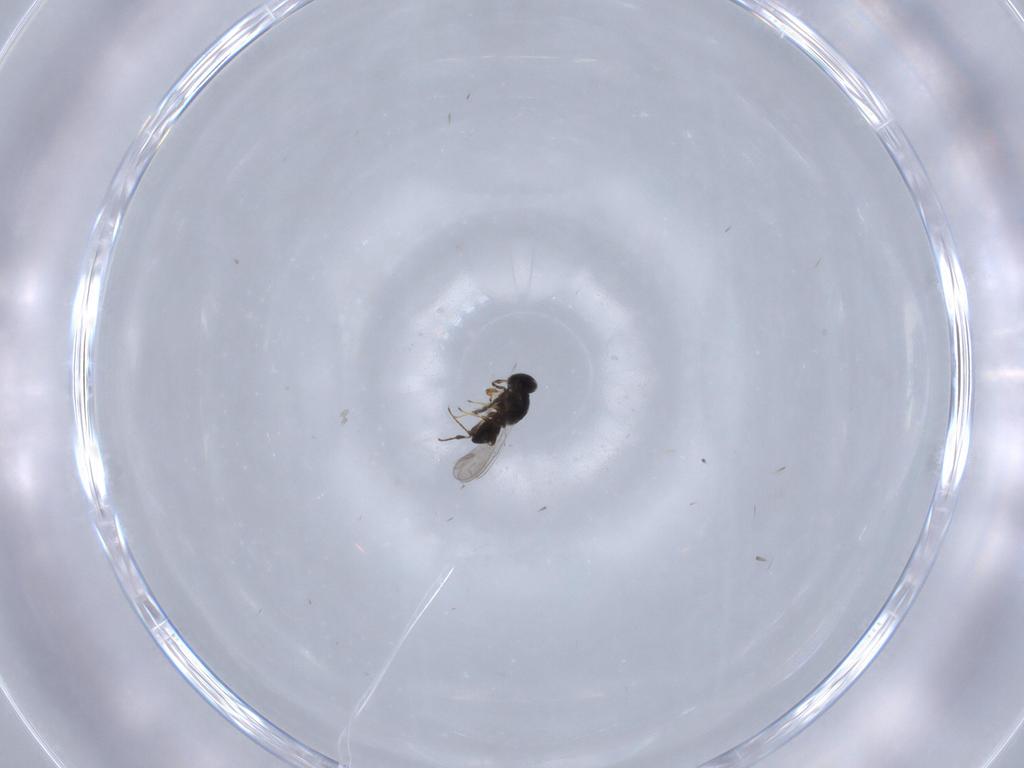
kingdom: Animalia
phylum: Arthropoda
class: Insecta
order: Hymenoptera
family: Platygastridae
